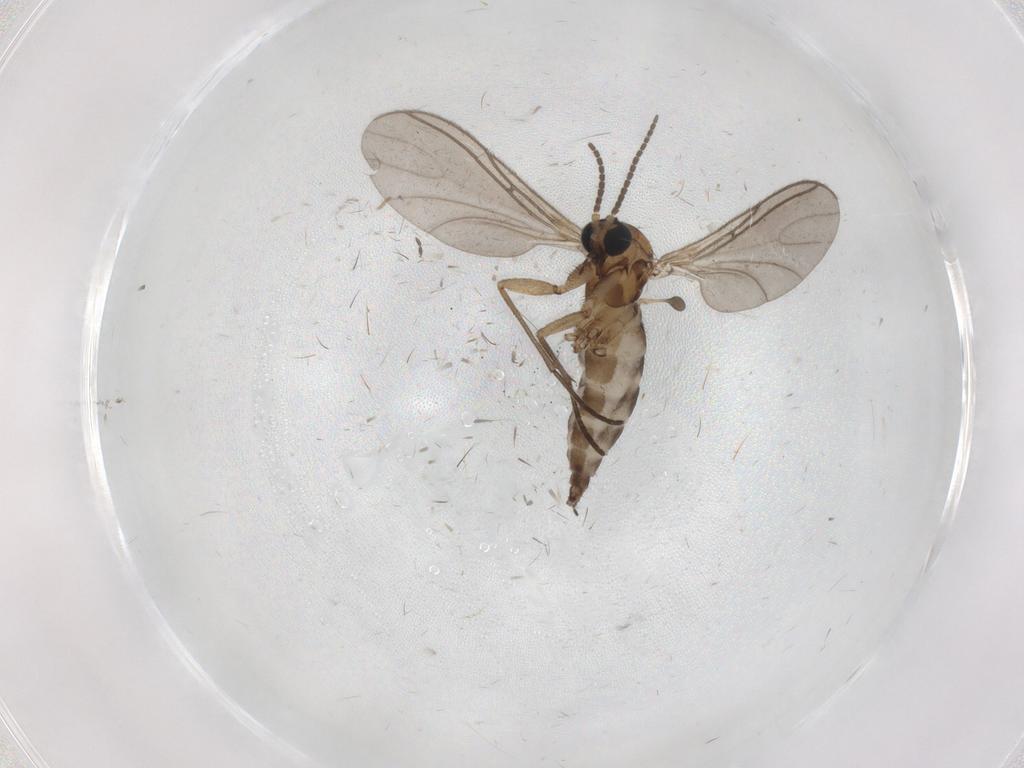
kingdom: Animalia
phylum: Arthropoda
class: Insecta
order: Diptera
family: Sciaridae
